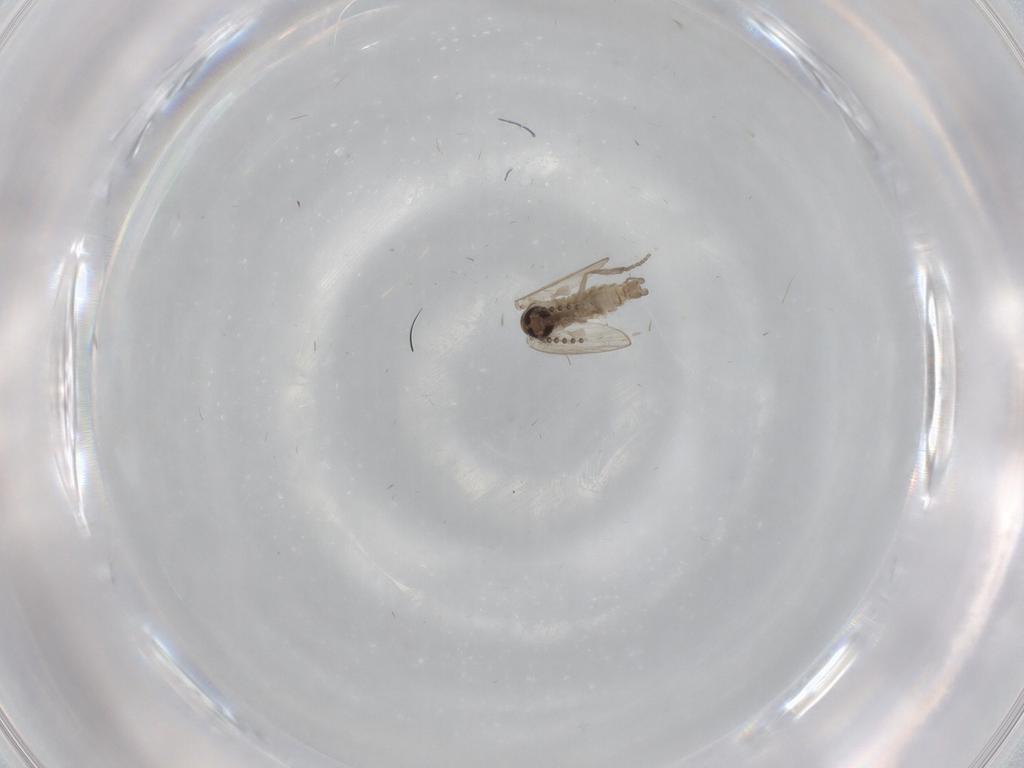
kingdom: Animalia
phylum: Arthropoda
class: Insecta
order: Diptera
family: Psychodidae
